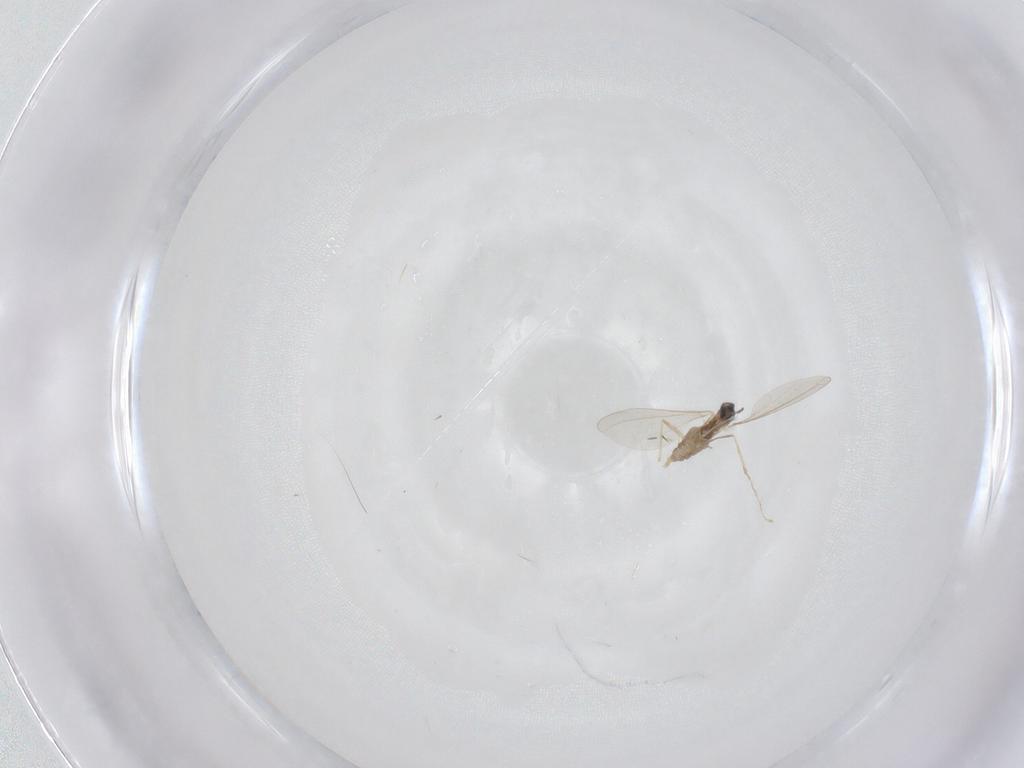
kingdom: Animalia
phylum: Arthropoda
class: Insecta
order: Diptera
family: Cecidomyiidae
